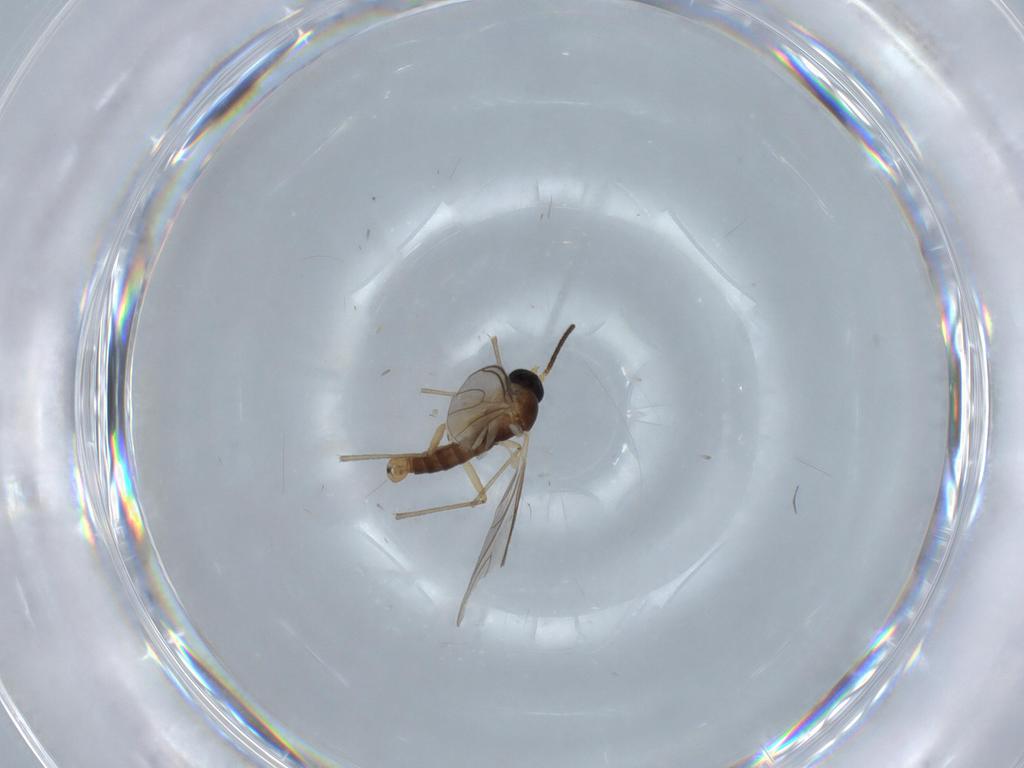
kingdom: Animalia
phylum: Arthropoda
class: Insecta
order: Diptera
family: Sciaridae
